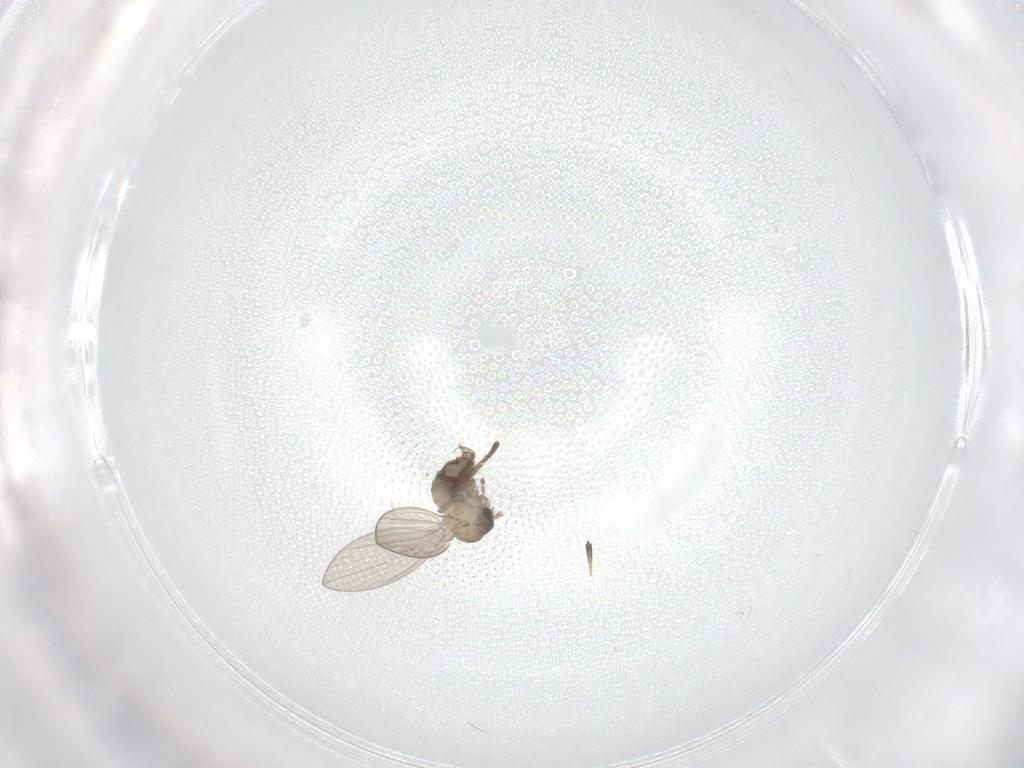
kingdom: Animalia
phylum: Arthropoda
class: Insecta
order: Diptera
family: Psychodidae
